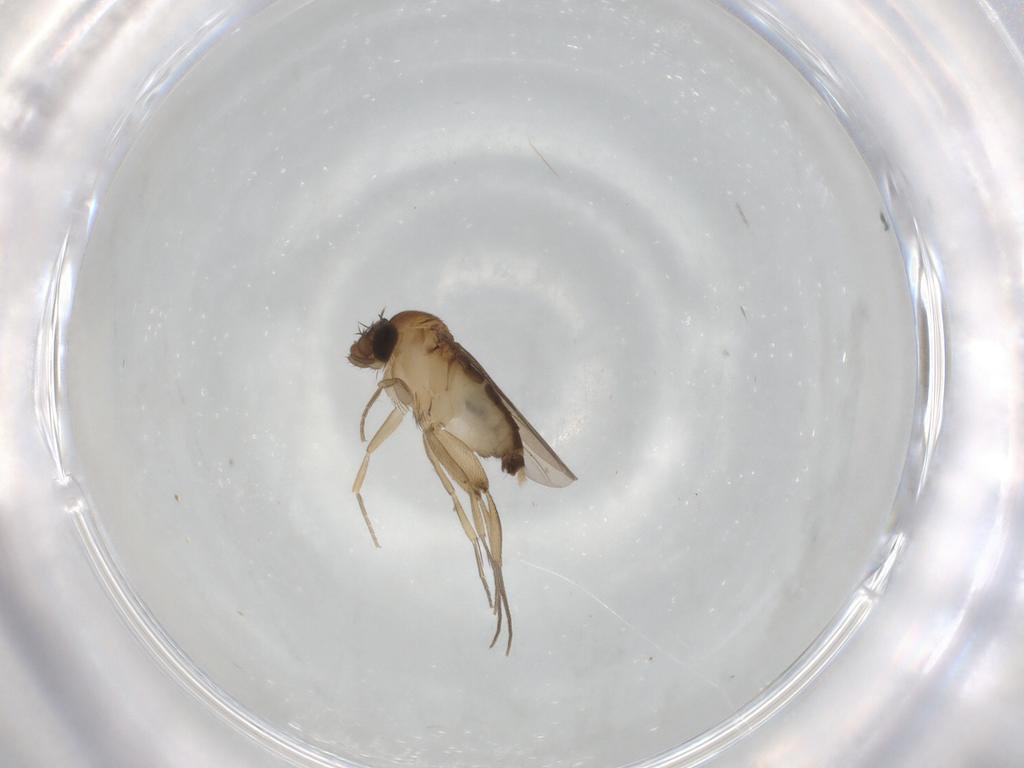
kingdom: Animalia
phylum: Arthropoda
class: Insecta
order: Diptera
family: Phoridae
